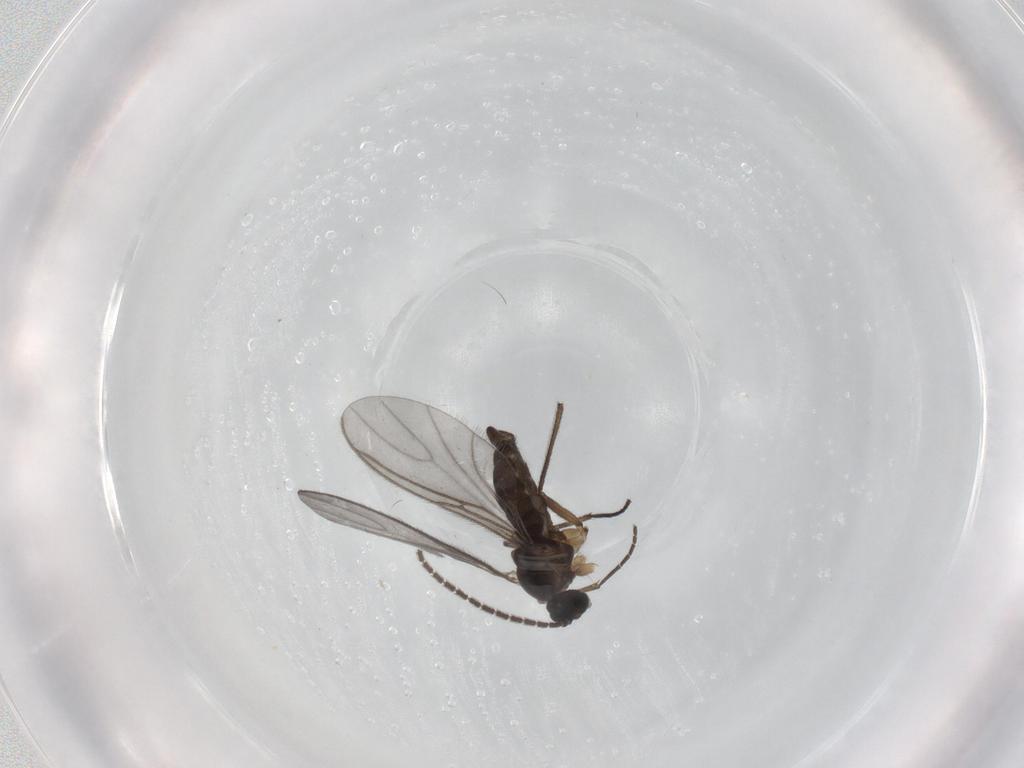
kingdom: Animalia
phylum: Arthropoda
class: Insecta
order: Diptera
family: Sciaridae
